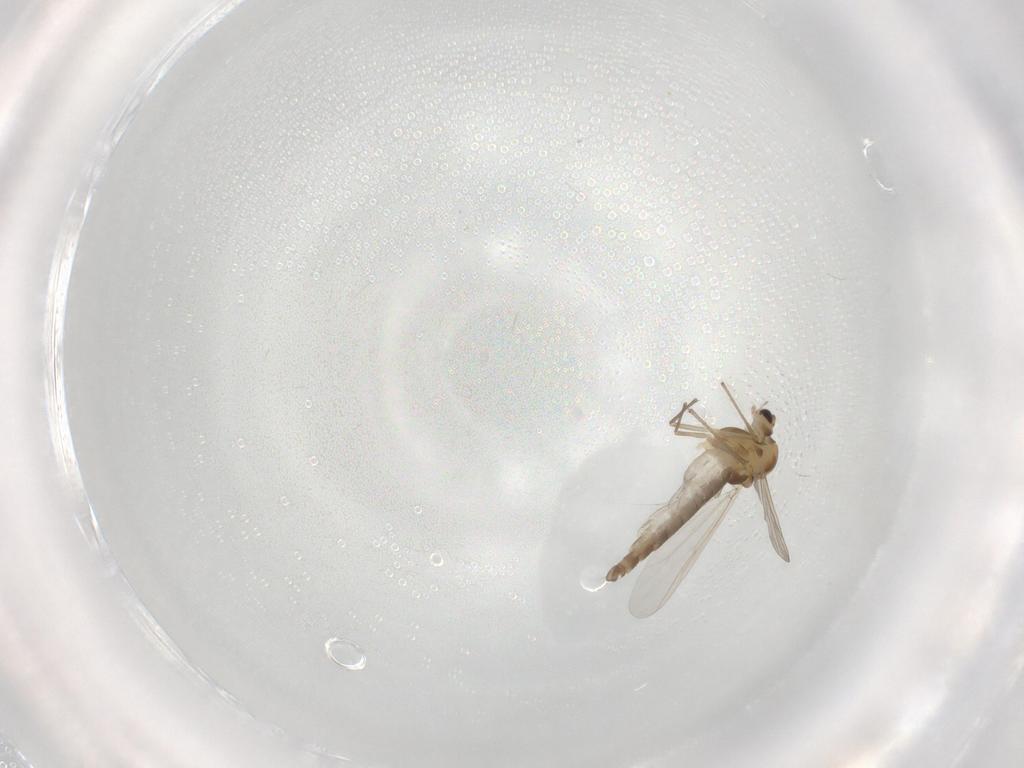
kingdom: Animalia
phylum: Arthropoda
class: Insecta
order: Diptera
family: Chironomidae
